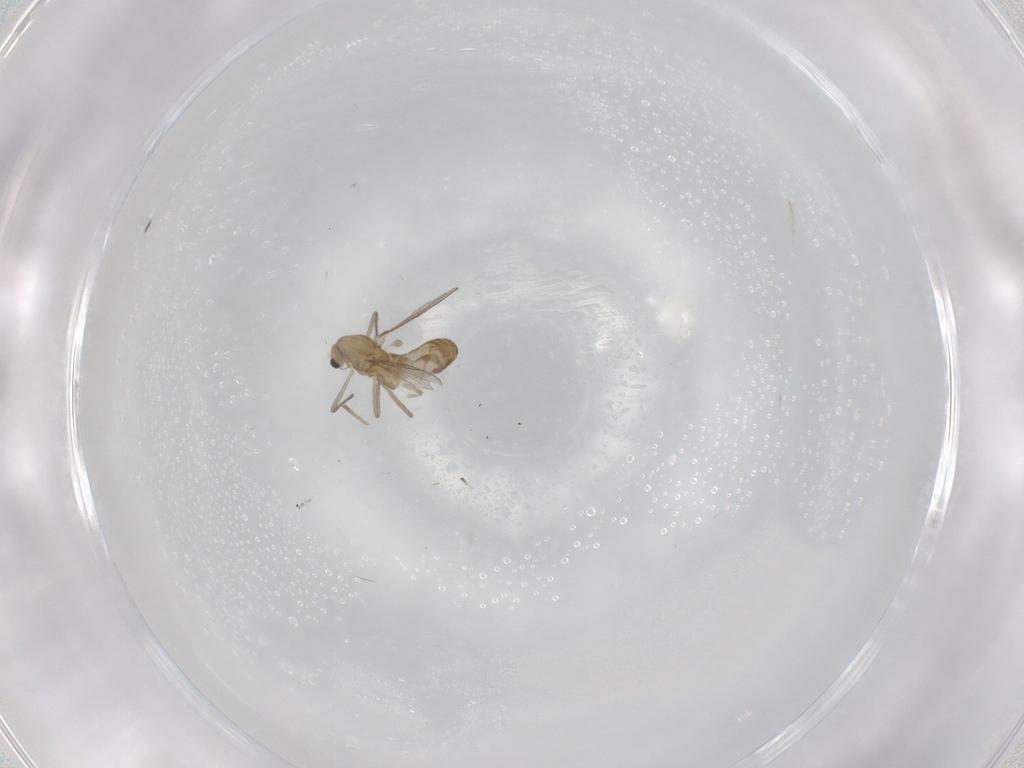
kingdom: Animalia
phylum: Arthropoda
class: Insecta
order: Diptera
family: Chironomidae
